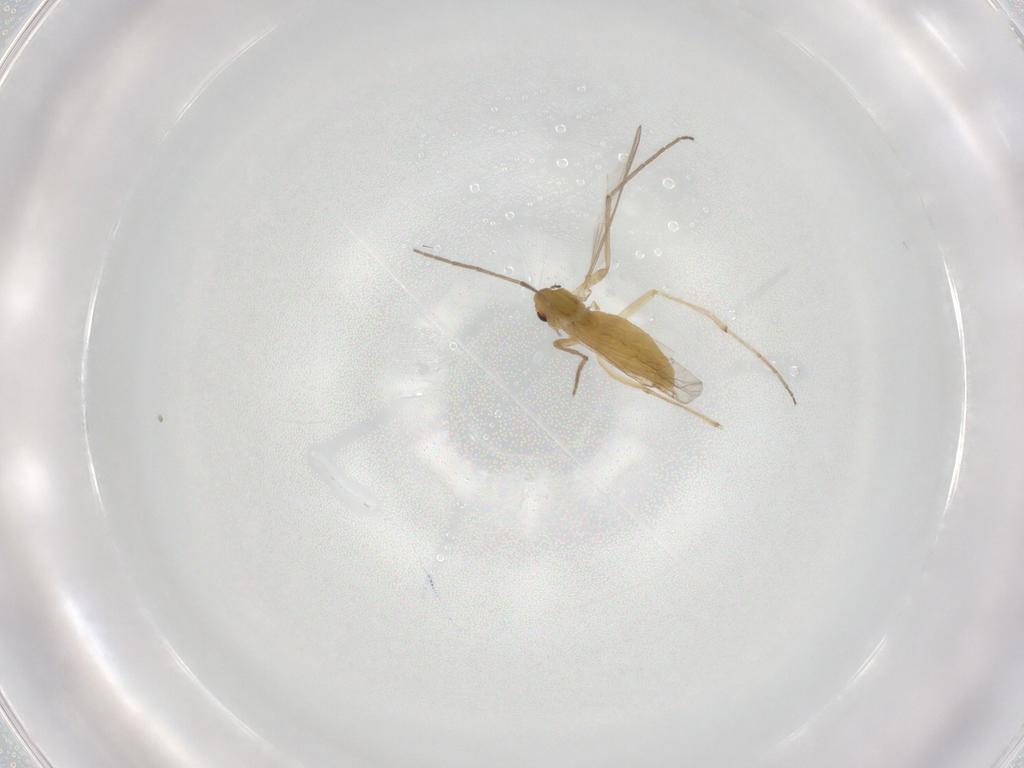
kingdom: Animalia
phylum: Arthropoda
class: Insecta
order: Diptera
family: Chironomidae
